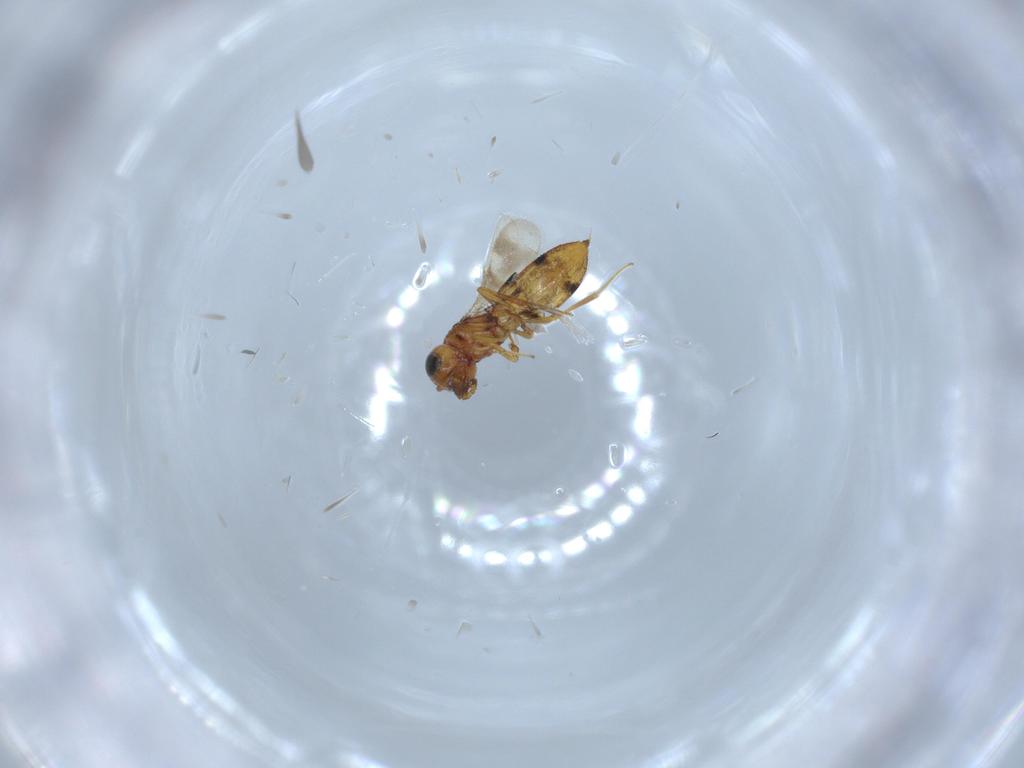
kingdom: Animalia
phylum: Arthropoda
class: Insecta
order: Hymenoptera
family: Scelionidae
